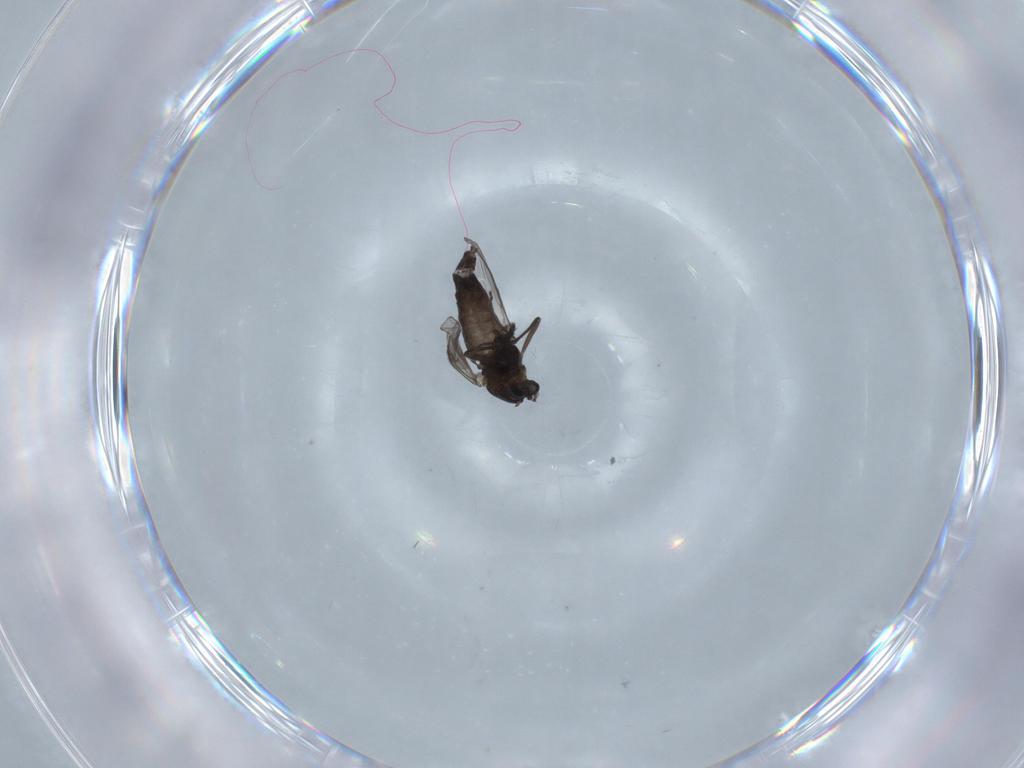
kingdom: Animalia
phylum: Arthropoda
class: Insecta
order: Diptera
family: Chironomidae
